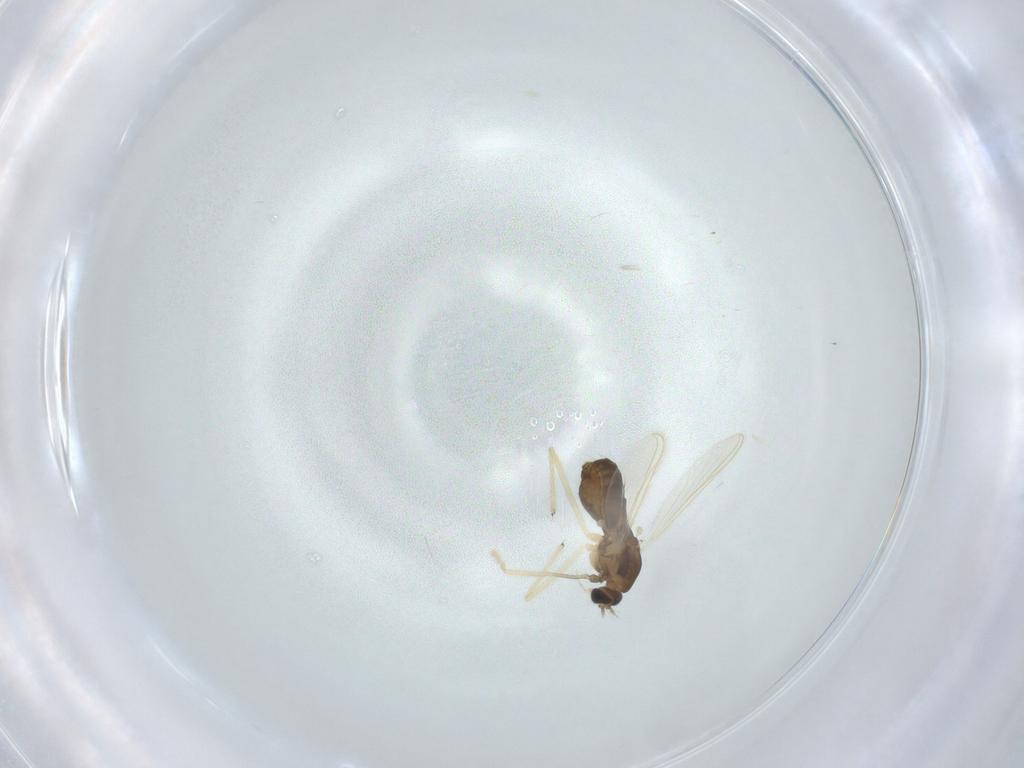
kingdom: Animalia
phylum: Arthropoda
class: Insecta
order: Diptera
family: Chironomidae
